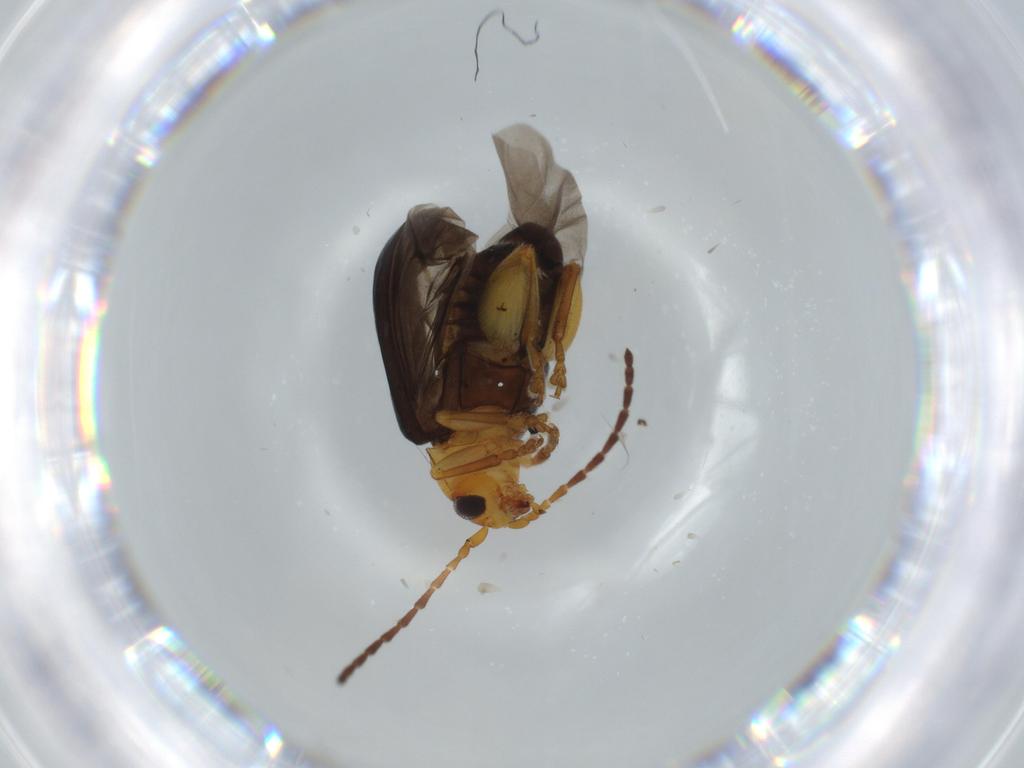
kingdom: Animalia
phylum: Arthropoda
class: Insecta
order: Coleoptera
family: Chrysomelidae
